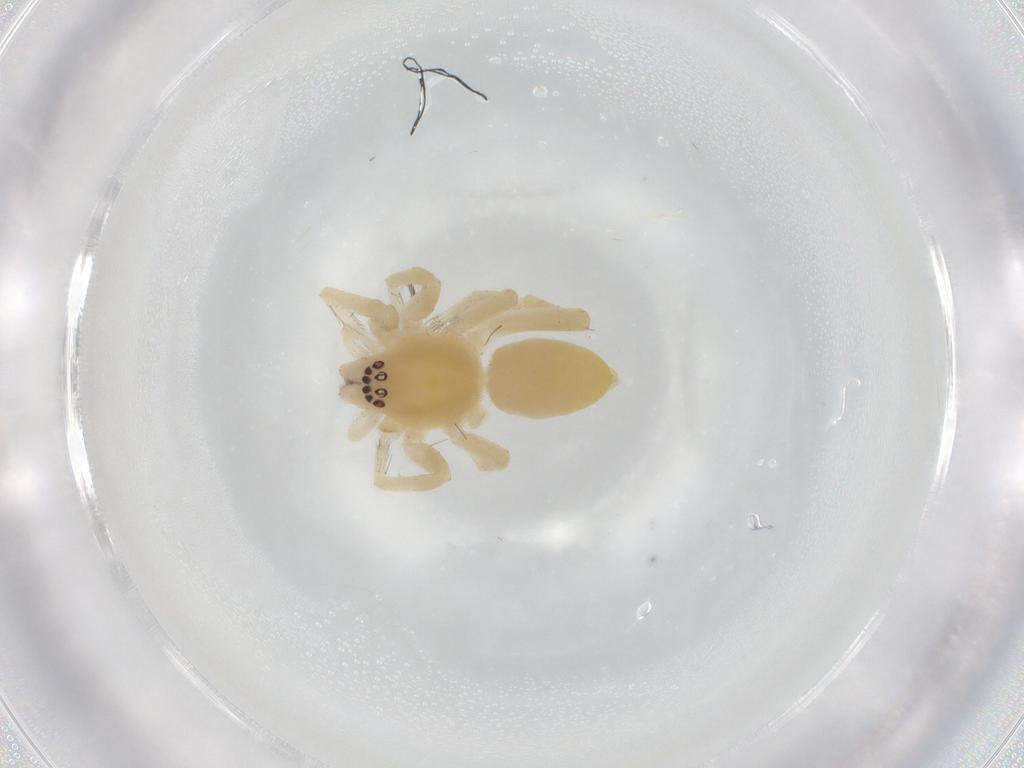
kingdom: Animalia
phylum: Arthropoda
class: Arachnida
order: Araneae
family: Anyphaenidae
